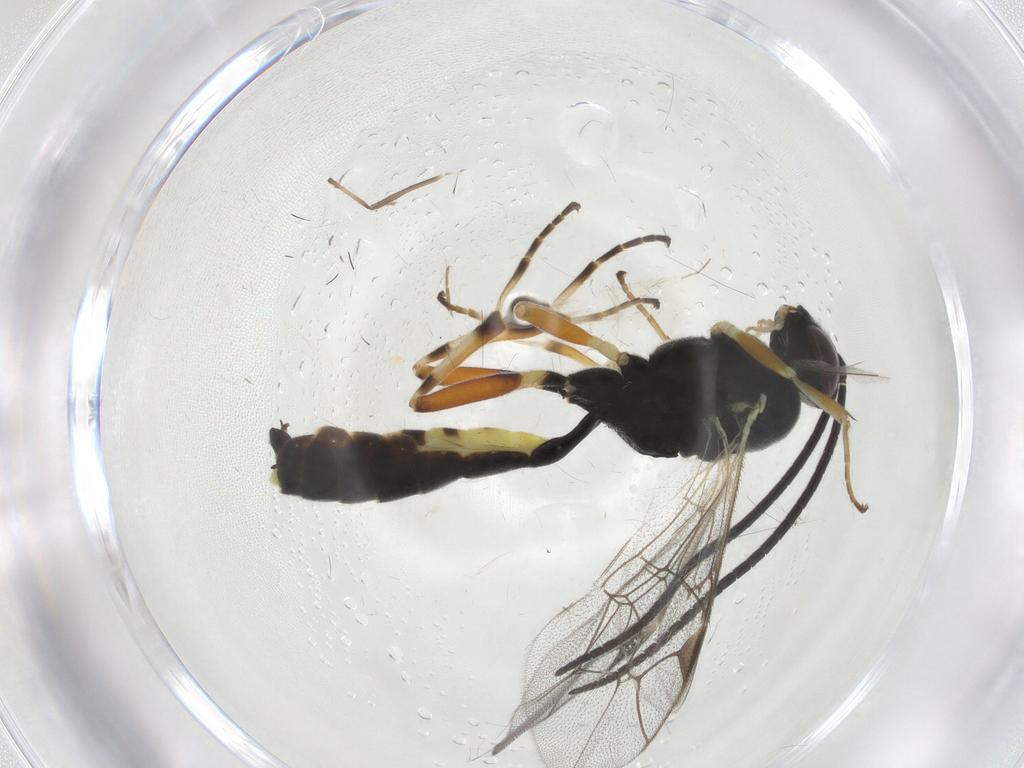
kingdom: Animalia
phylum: Arthropoda
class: Insecta
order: Hymenoptera
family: Ichneumonidae
